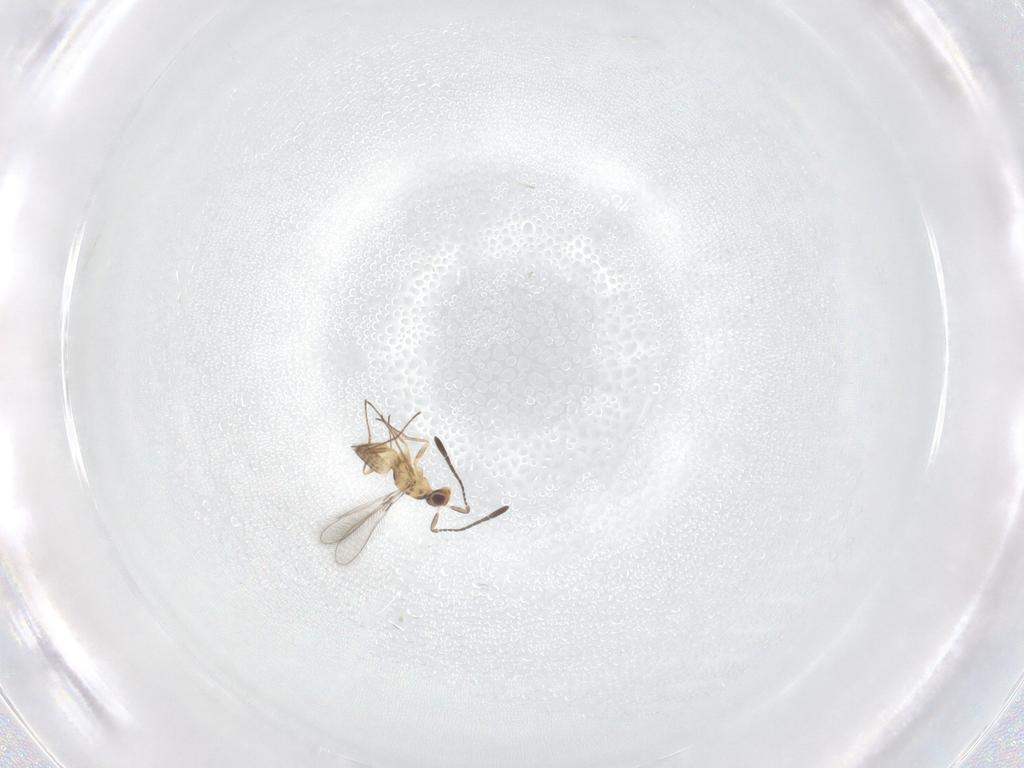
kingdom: Animalia
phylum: Arthropoda
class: Insecta
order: Hymenoptera
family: Mymaridae
